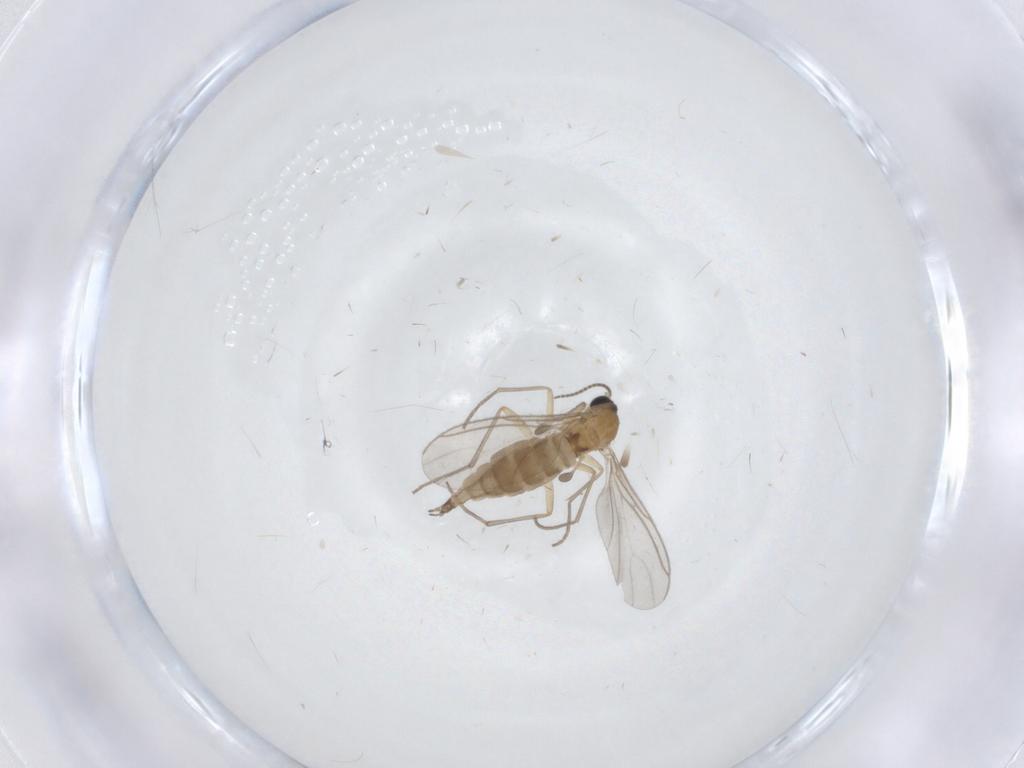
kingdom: Animalia
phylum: Arthropoda
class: Insecta
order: Diptera
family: Sciaridae
